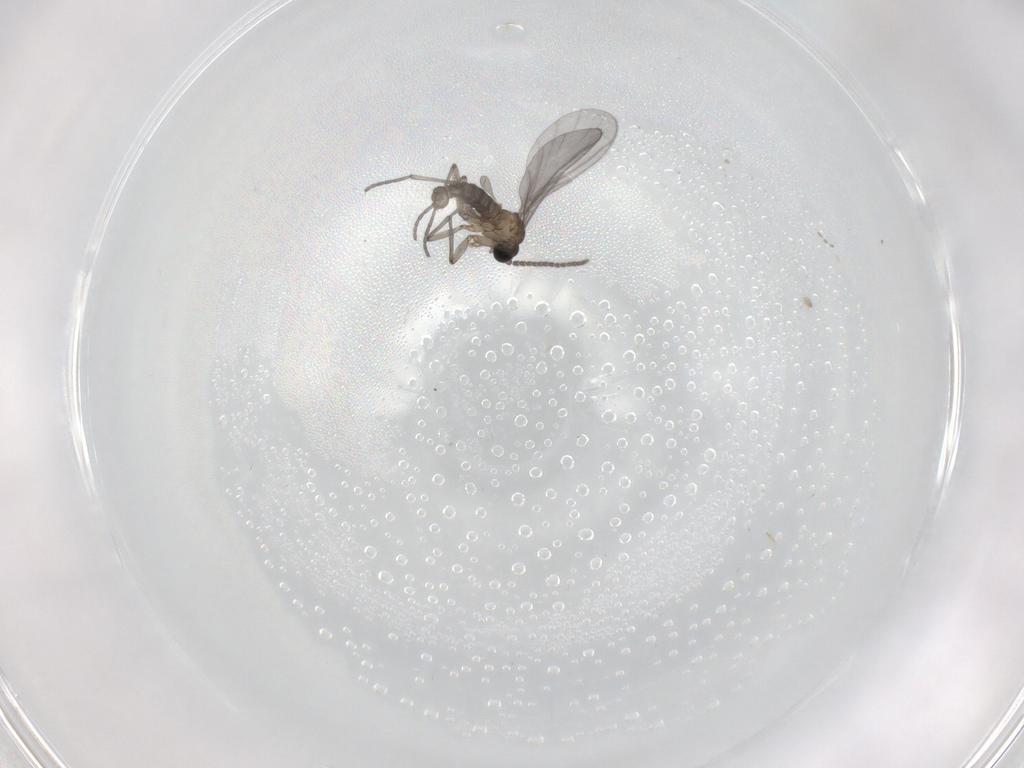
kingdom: Animalia
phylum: Arthropoda
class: Insecta
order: Diptera
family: Sciaridae
